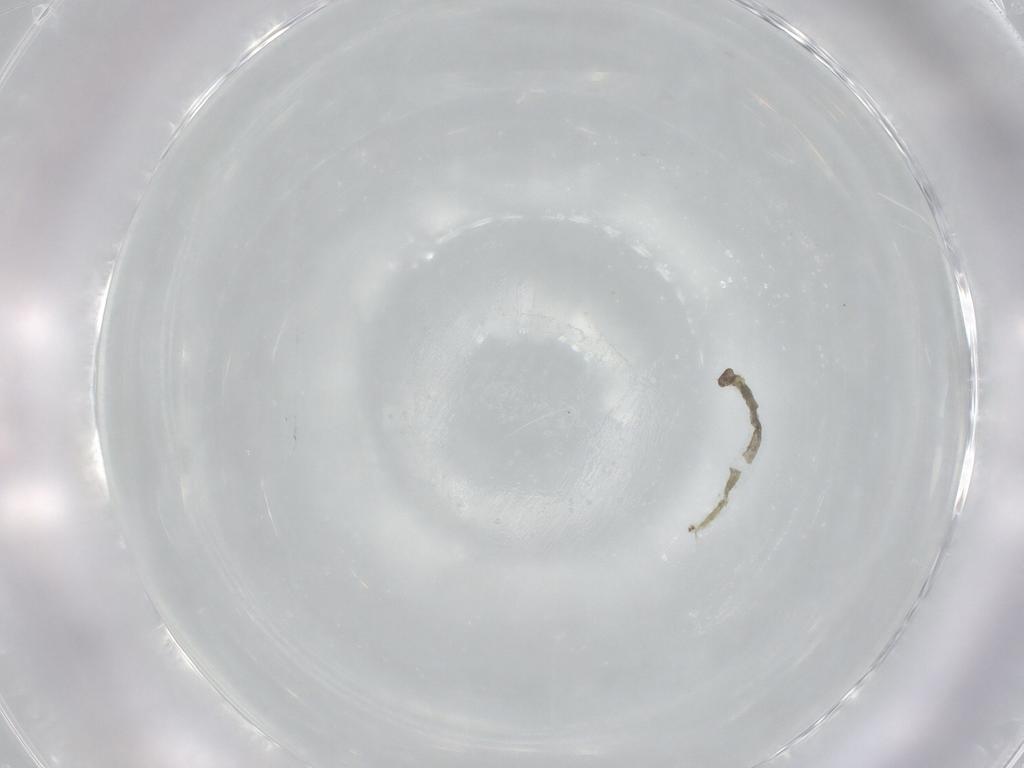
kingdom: Animalia
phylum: Arthropoda
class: Insecta
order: Diptera
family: Chironomidae
